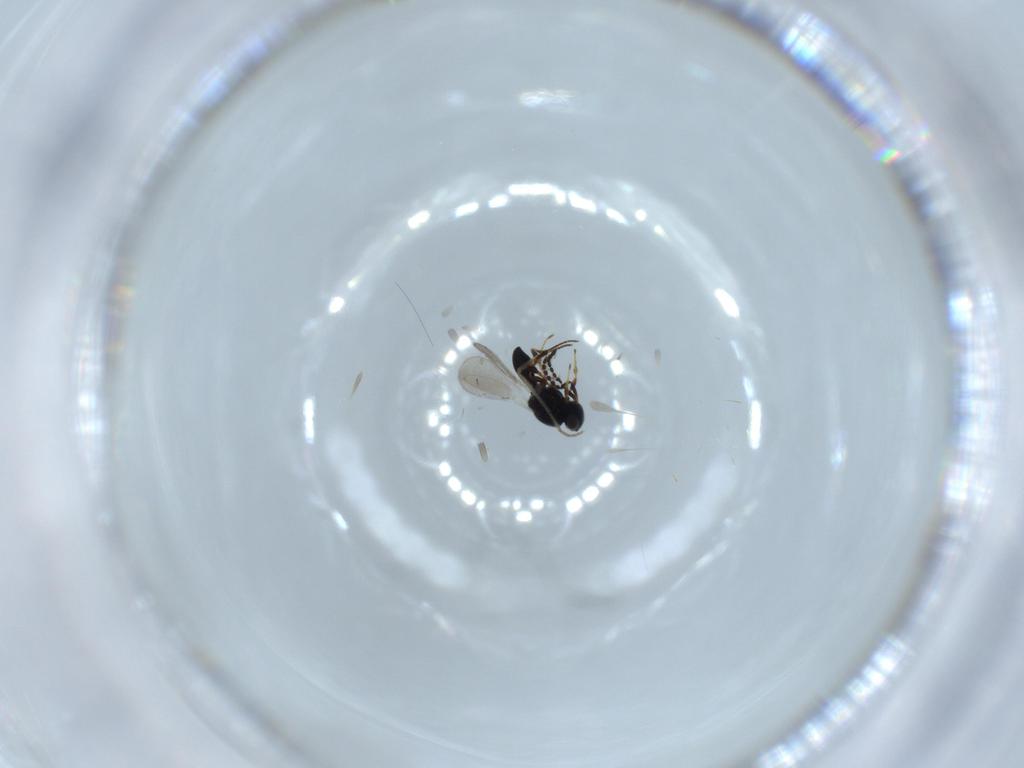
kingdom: Animalia
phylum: Arthropoda
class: Insecta
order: Hymenoptera
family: Platygastridae
